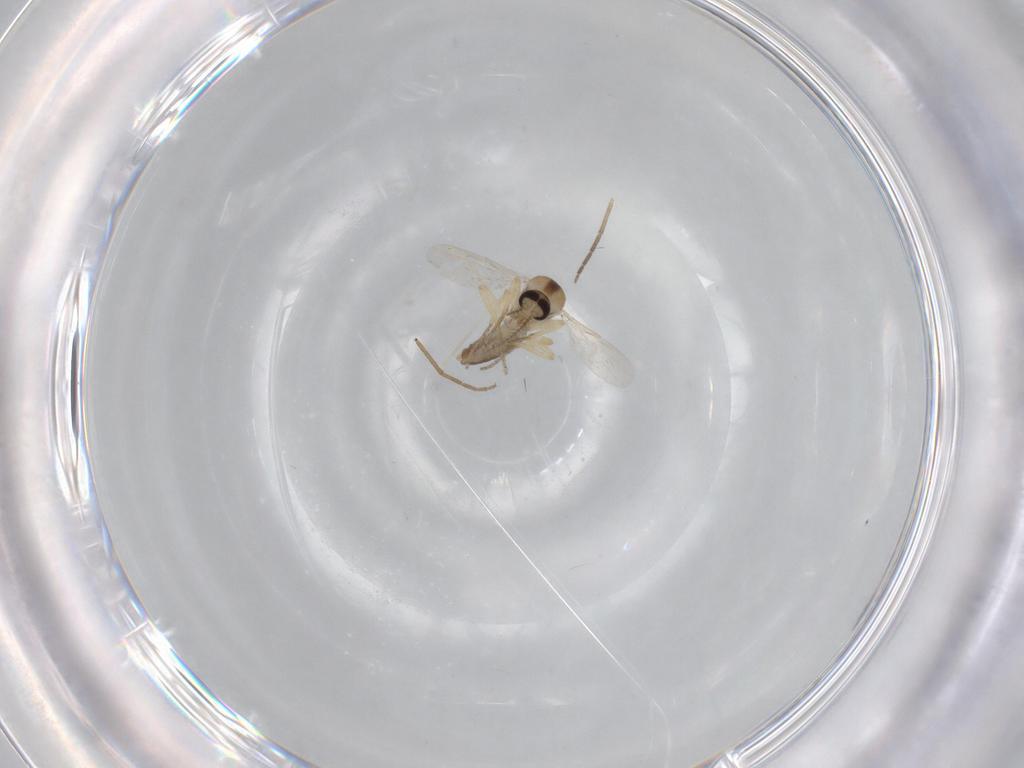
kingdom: Animalia
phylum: Arthropoda
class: Insecta
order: Diptera
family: Ceratopogonidae
